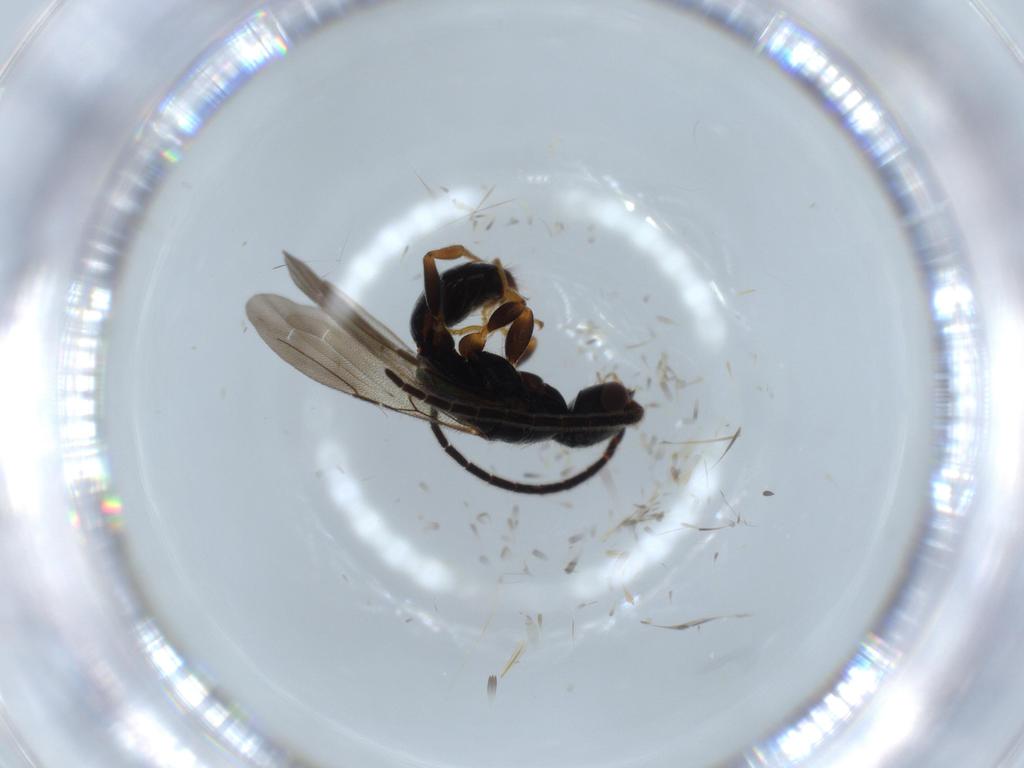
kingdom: Animalia
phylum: Arthropoda
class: Insecta
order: Hymenoptera
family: Bethylidae
